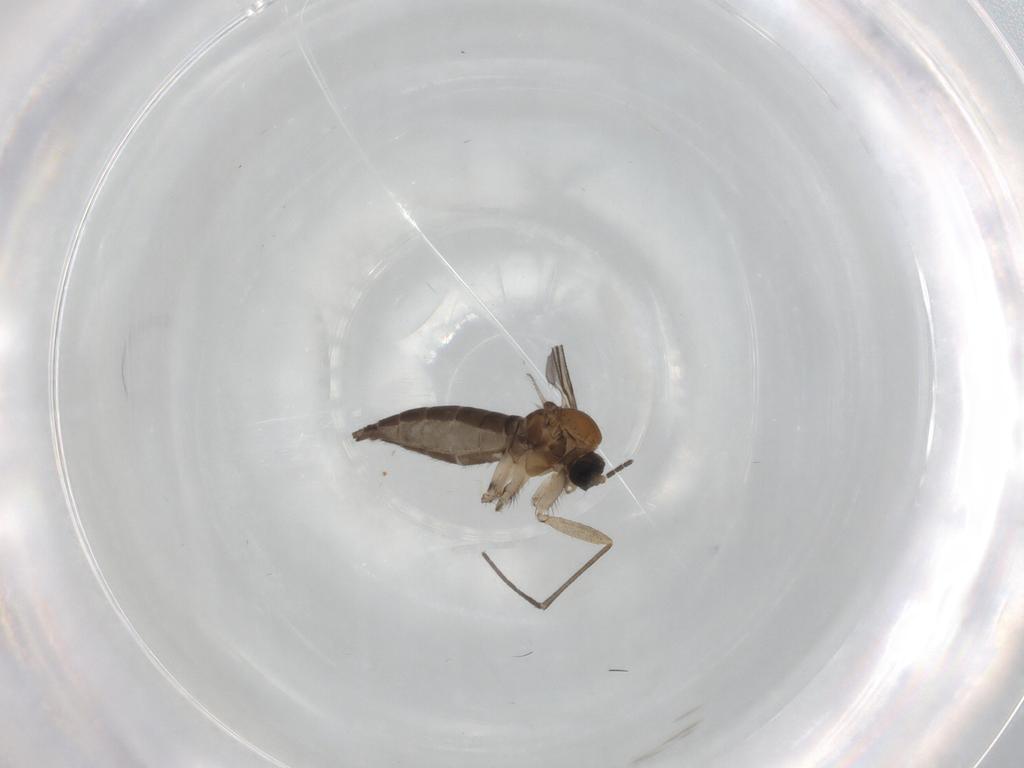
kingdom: Animalia
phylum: Arthropoda
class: Insecta
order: Diptera
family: Sciaridae
